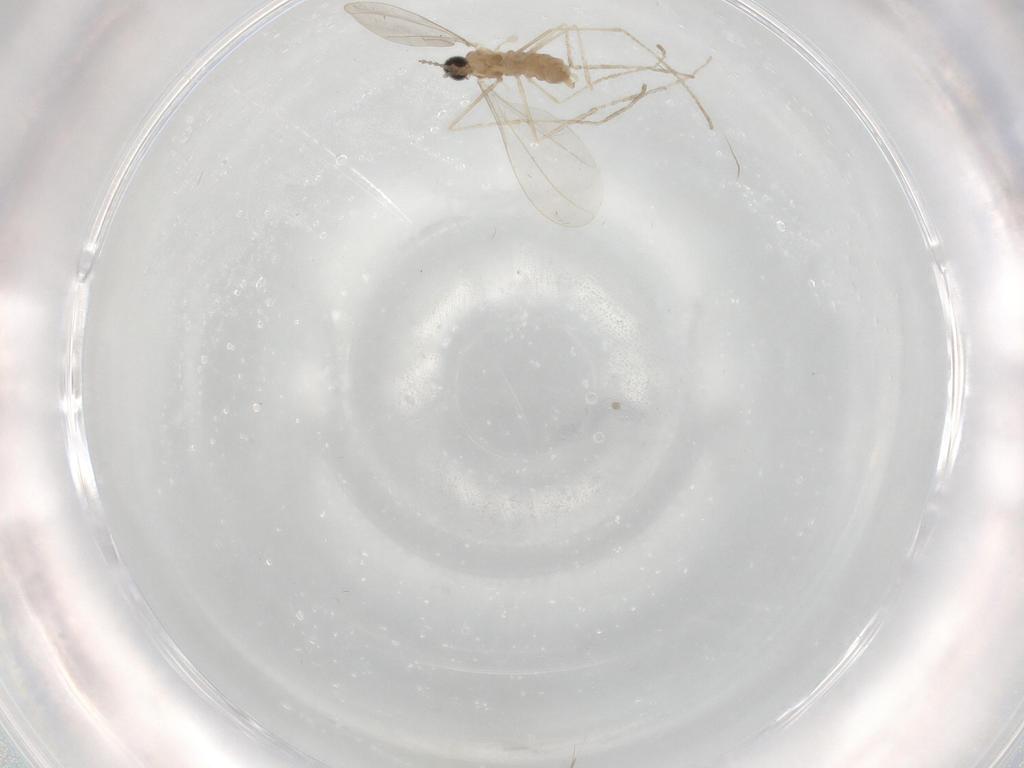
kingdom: Animalia
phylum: Arthropoda
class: Insecta
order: Diptera
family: Cecidomyiidae
